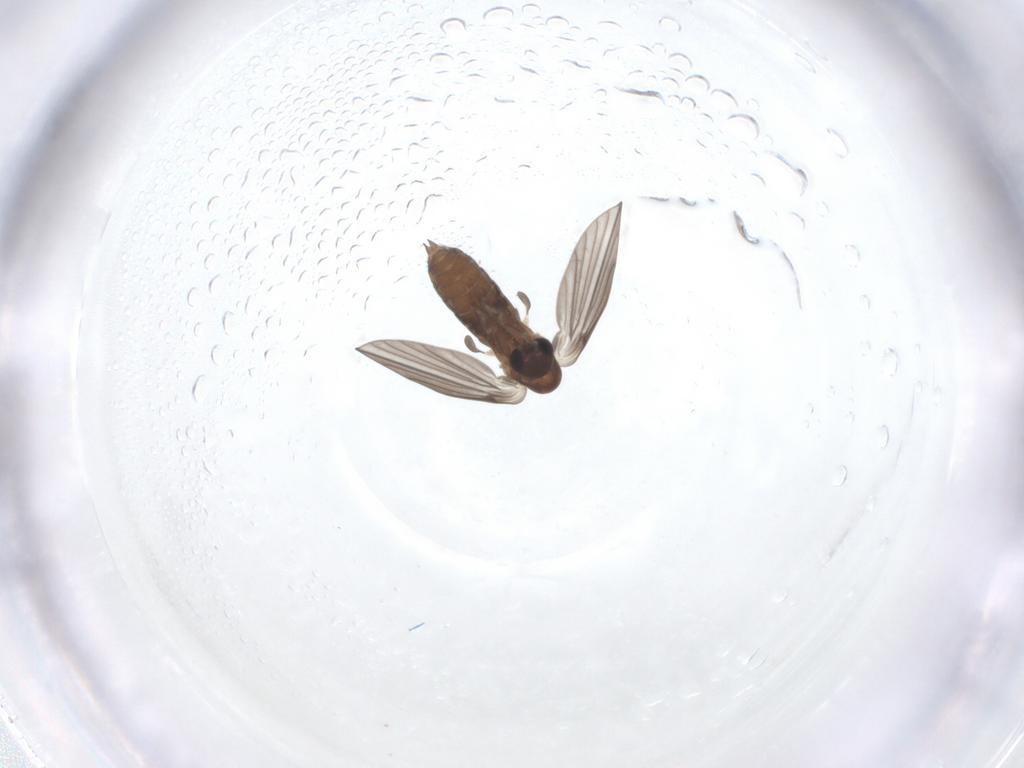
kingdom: Animalia
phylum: Arthropoda
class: Insecta
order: Diptera
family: Psychodidae
